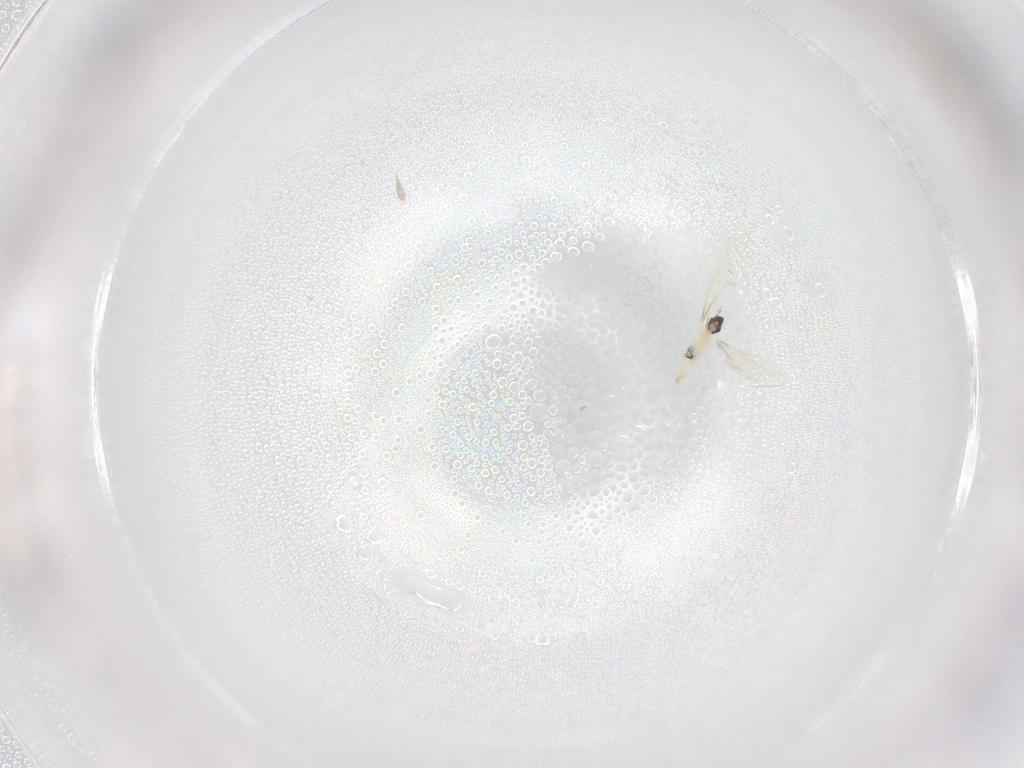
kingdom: Animalia
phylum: Arthropoda
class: Insecta
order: Diptera
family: Cecidomyiidae
